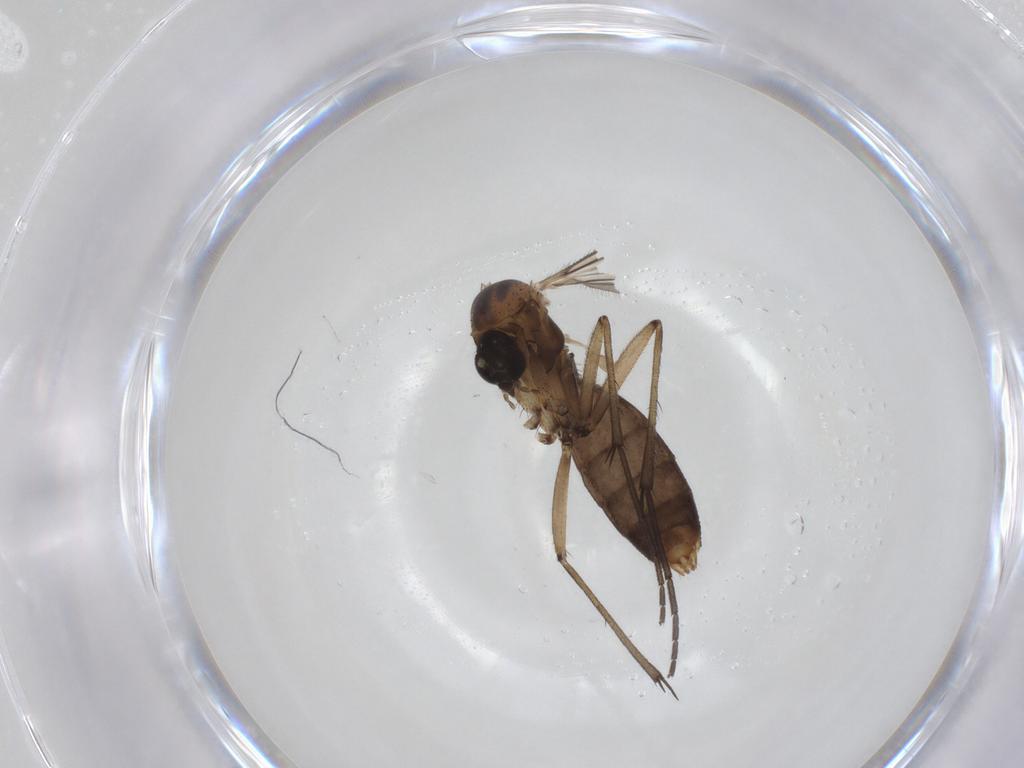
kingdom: Animalia
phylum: Arthropoda
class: Insecta
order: Diptera
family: Mycetophilidae
